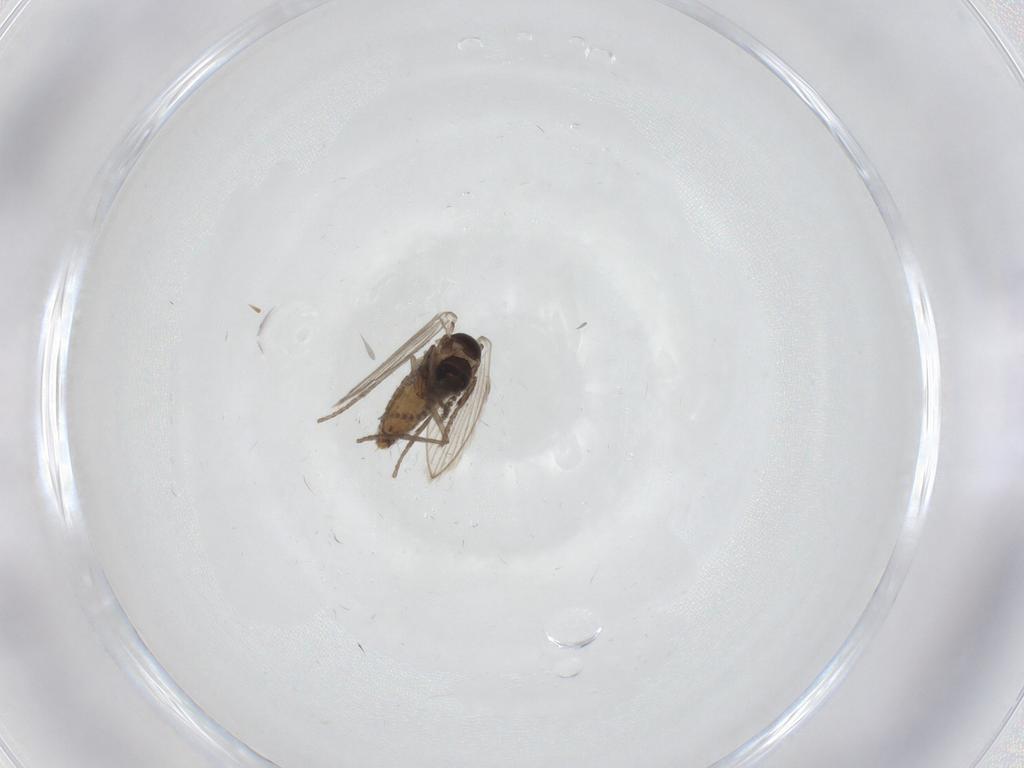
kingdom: Animalia
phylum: Arthropoda
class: Insecta
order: Diptera
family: Psychodidae
